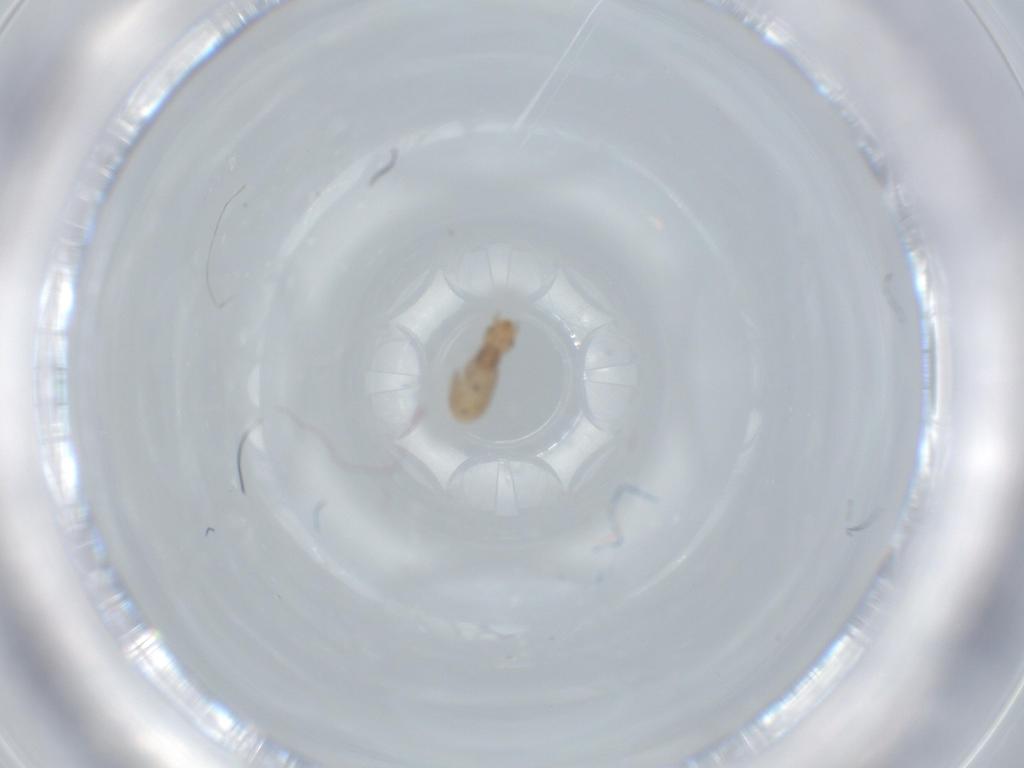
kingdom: Animalia
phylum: Arthropoda
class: Insecta
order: Psocodea
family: Liposcelididae
